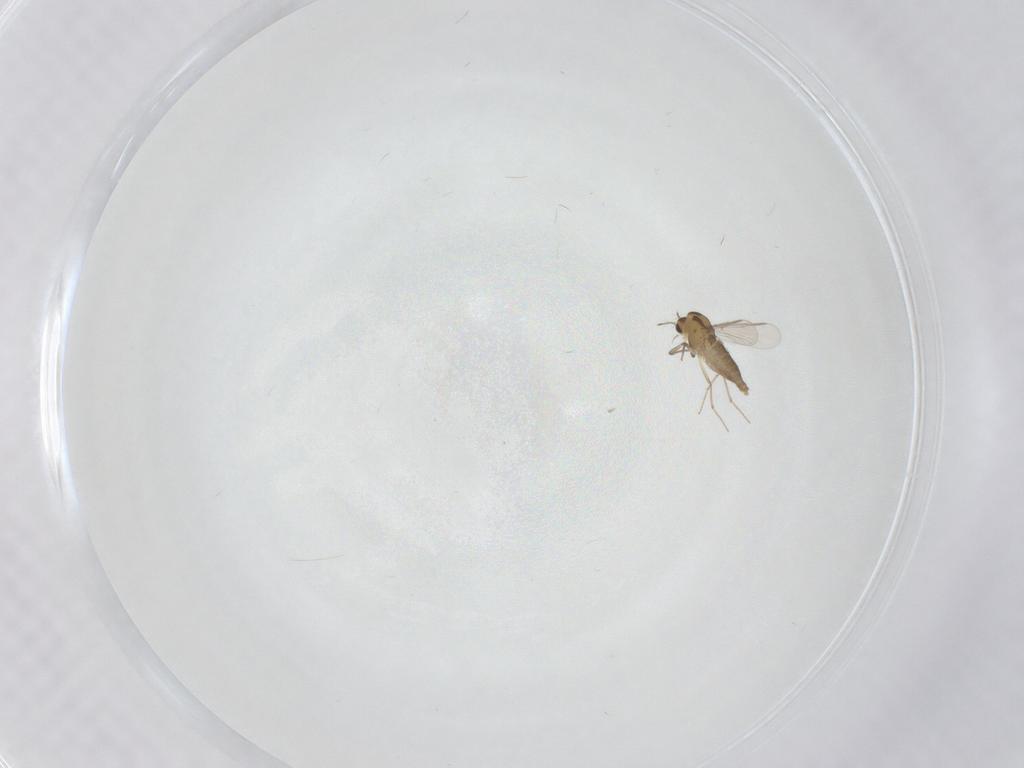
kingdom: Animalia
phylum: Arthropoda
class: Insecta
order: Diptera
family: Chironomidae
